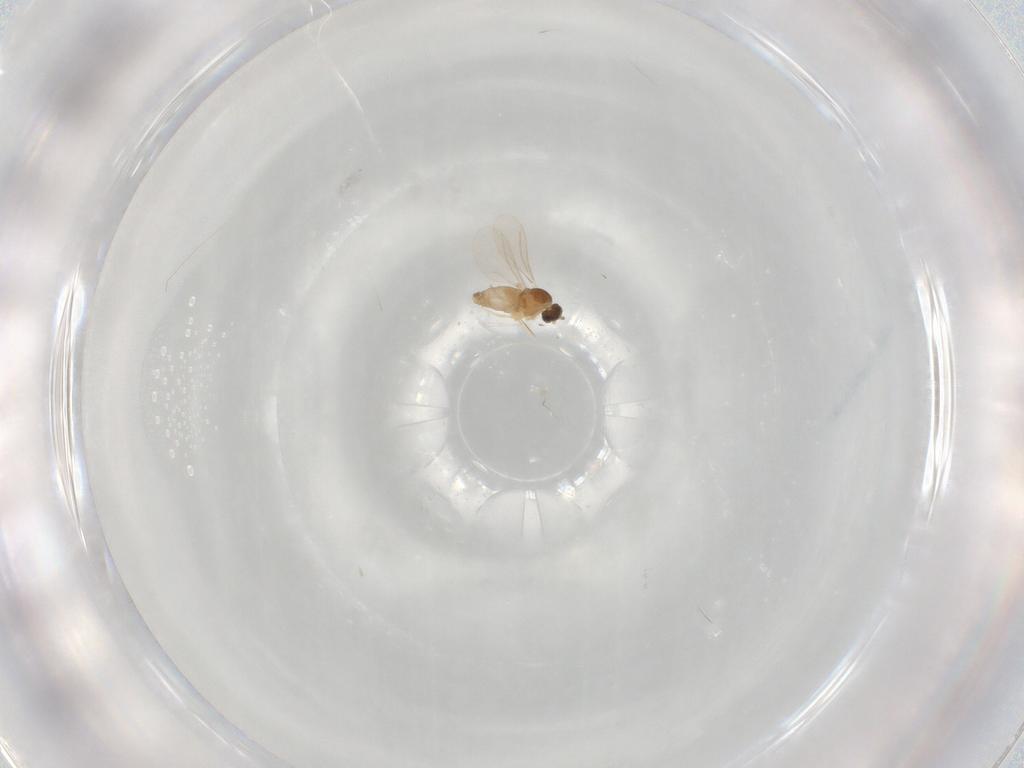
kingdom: Animalia
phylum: Arthropoda
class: Insecta
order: Diptera
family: Cecidomyiidae
